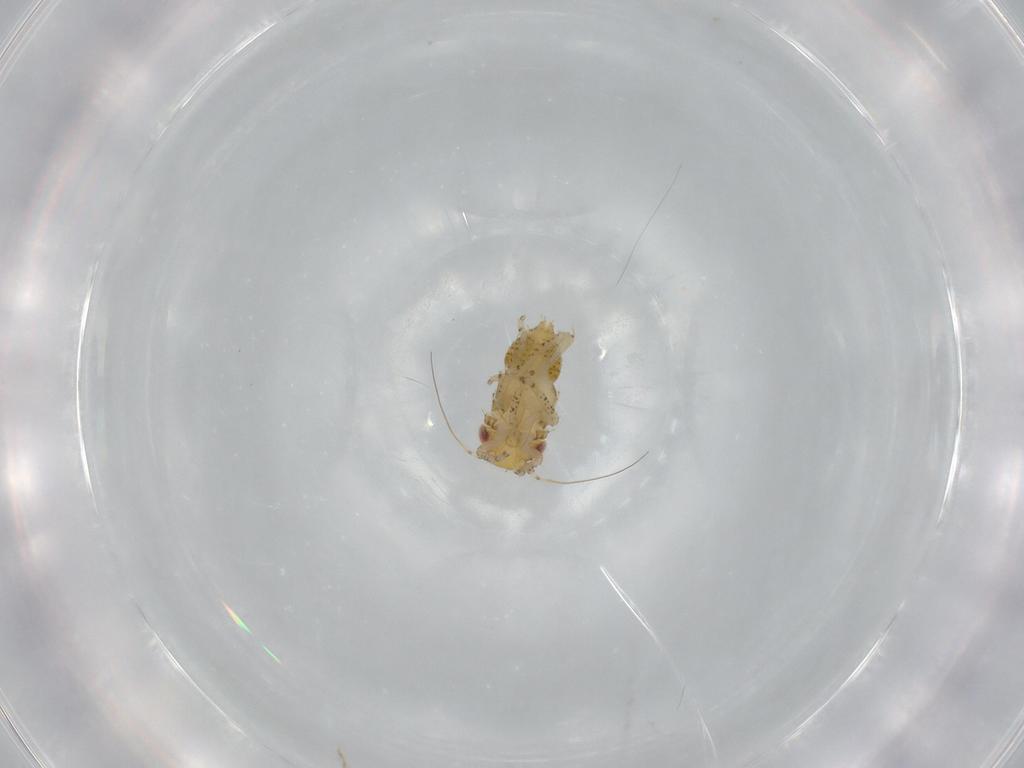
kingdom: Animalia
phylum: Arthropoda
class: Insecta
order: Hemiptera
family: Cicadellidae
